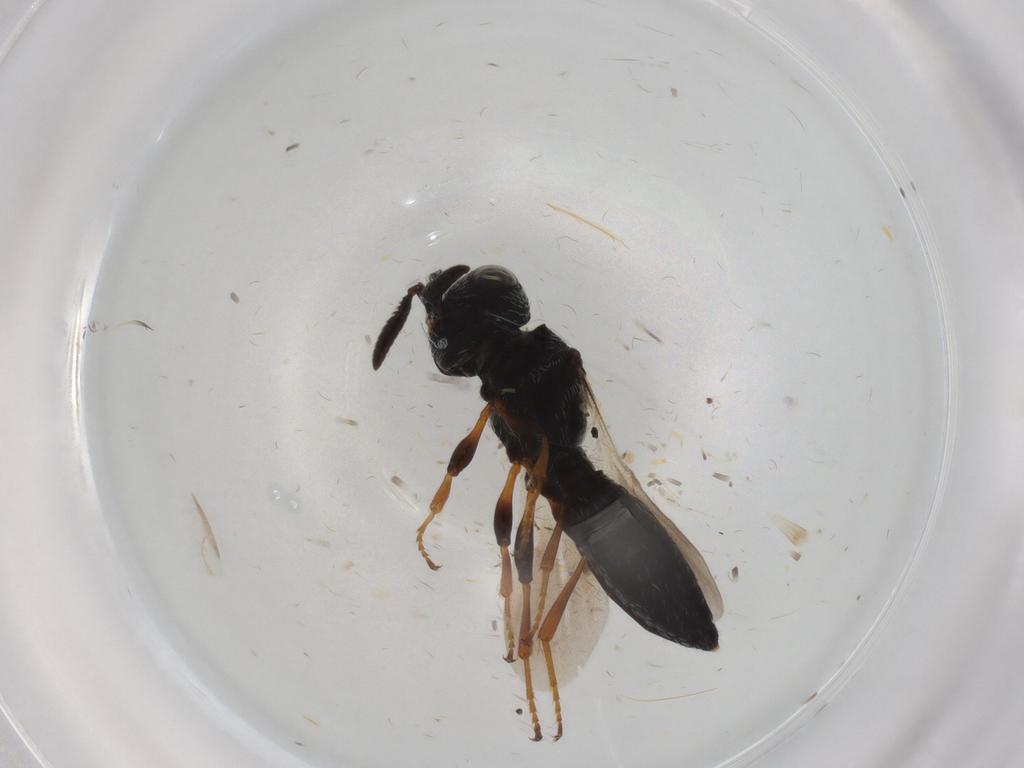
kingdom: Animalia
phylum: Arthropoda
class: Insecta
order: Hymenoptera
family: Scelionidae
